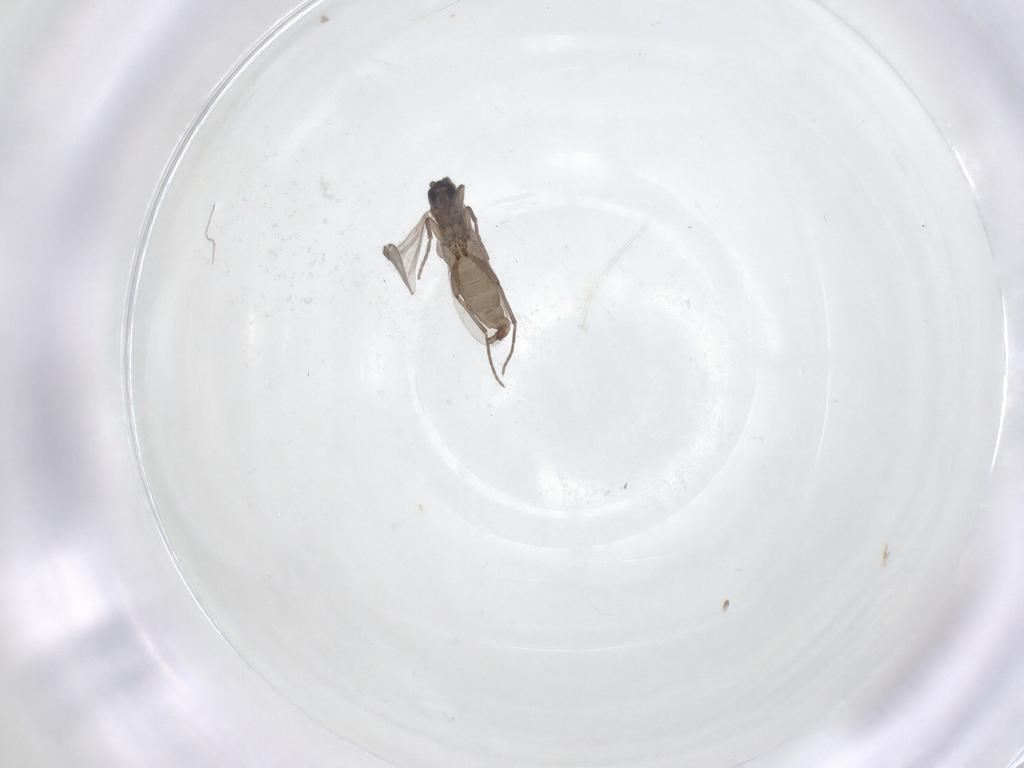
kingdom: Animalia
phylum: Arthropoda
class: Insecta
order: Diptera
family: Sciaridae
